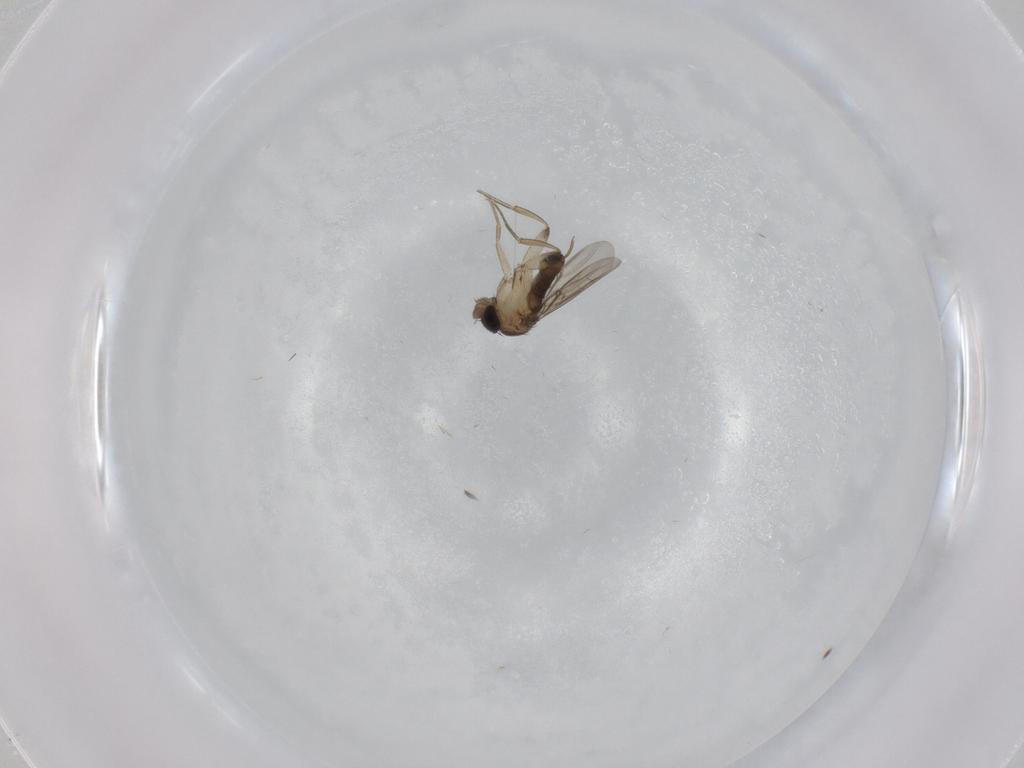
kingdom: Animalia
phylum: Arthropoda
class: Insecta
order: Diptera
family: Phoridae
